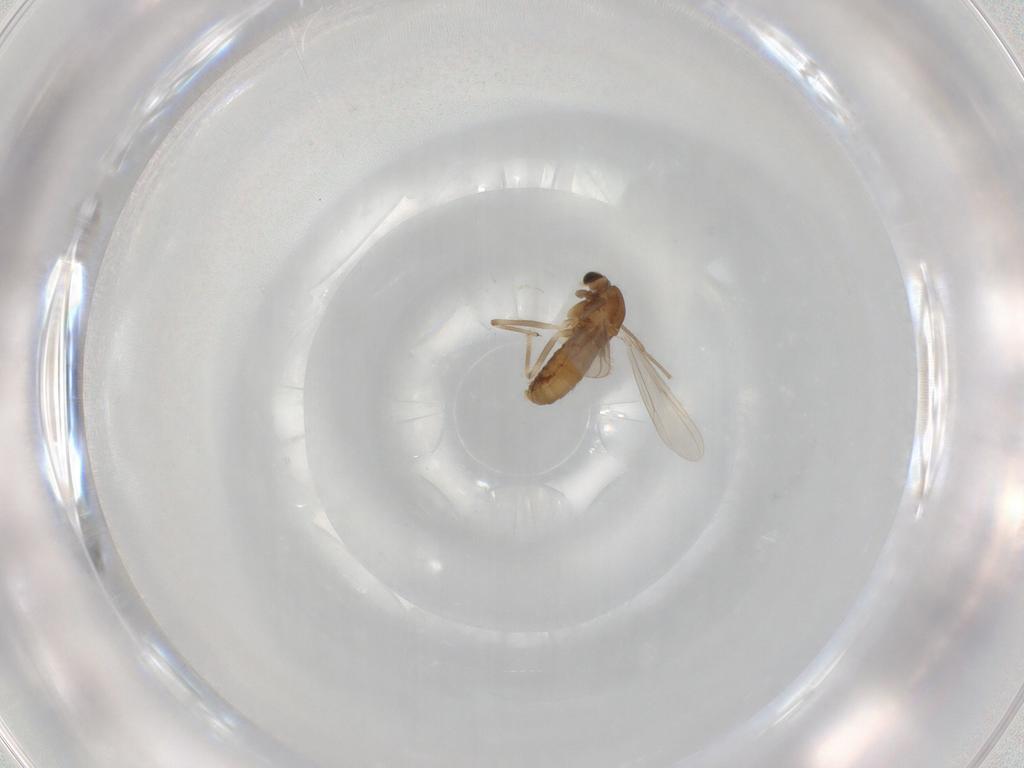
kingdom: Animalia
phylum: Arthropoda
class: Insecta
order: Diptera
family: Chironomidae
